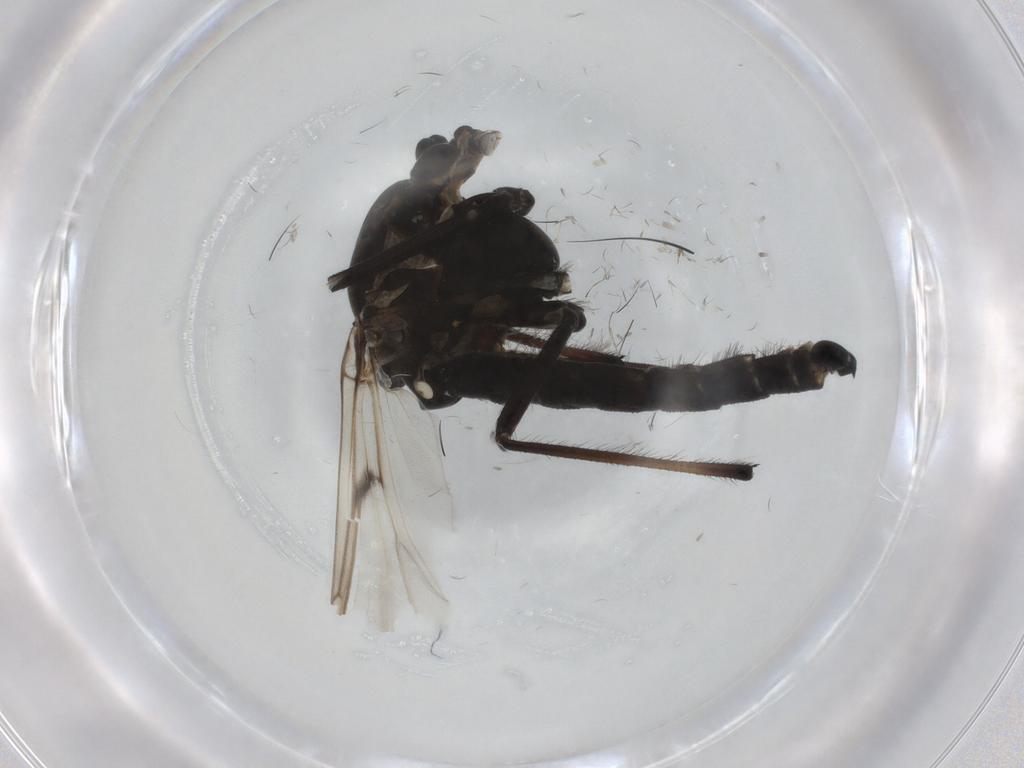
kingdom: Animalia
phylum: Arthropoda
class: Insecta
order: Diptera
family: Chironomidae
